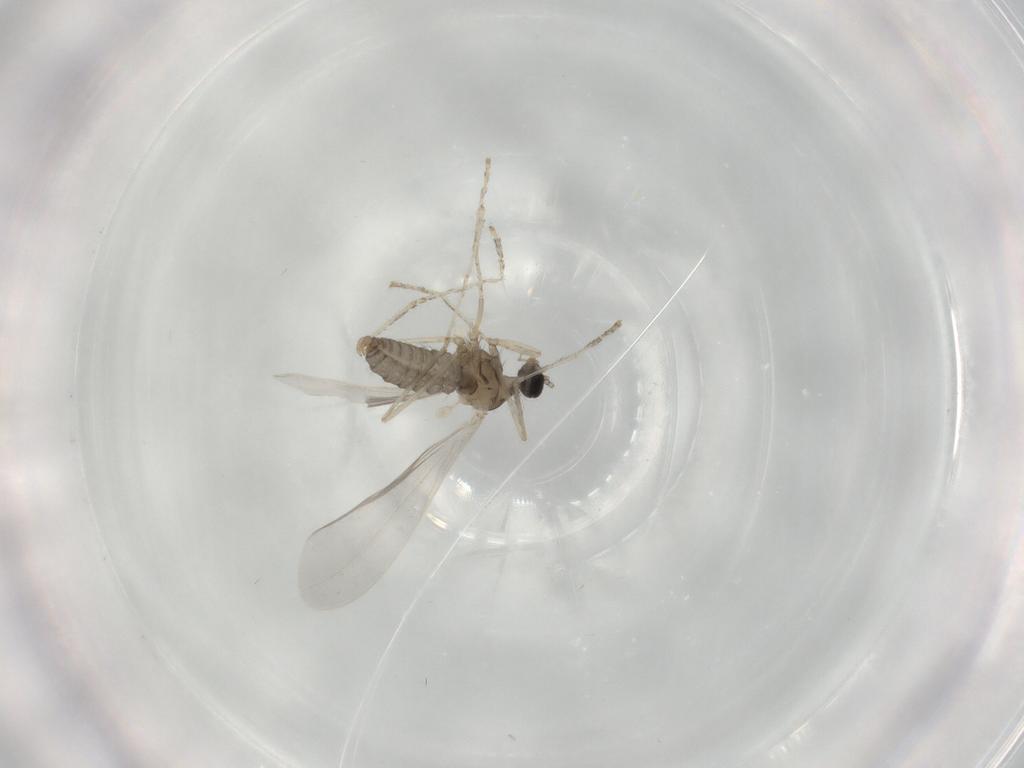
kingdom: Animalia
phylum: Arthropoda
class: Insecta
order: Diptera
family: Cecidomyiidae
